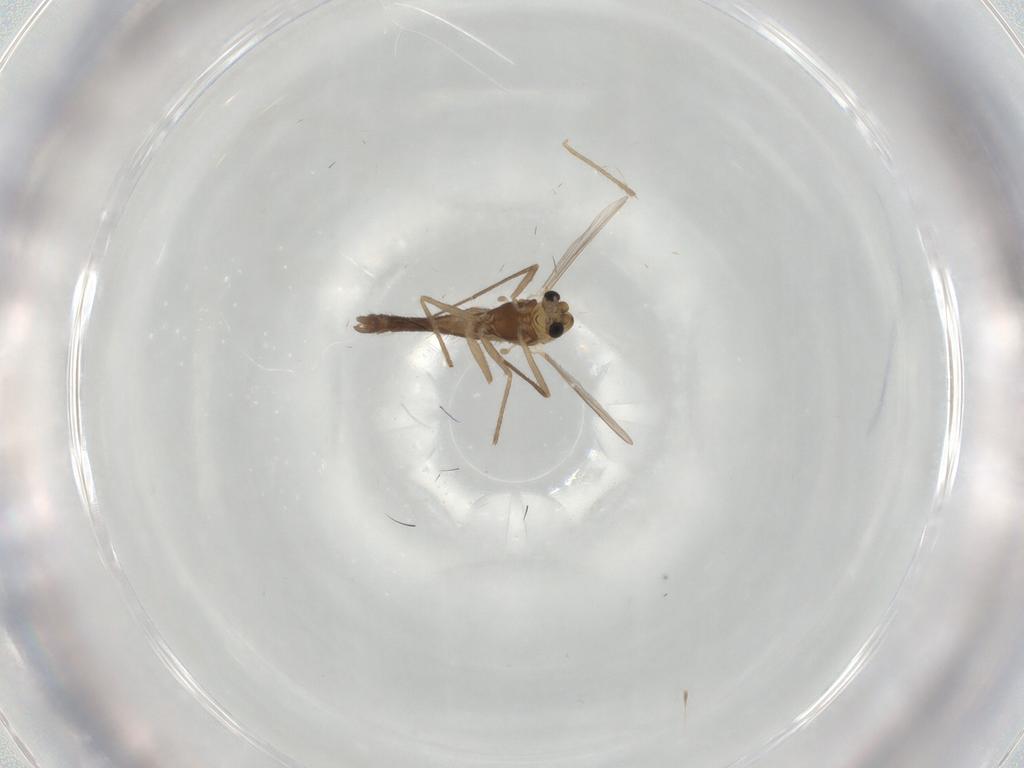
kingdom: Animalia
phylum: Arthropoda
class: Insecta
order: Diptera
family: Chironomidae
